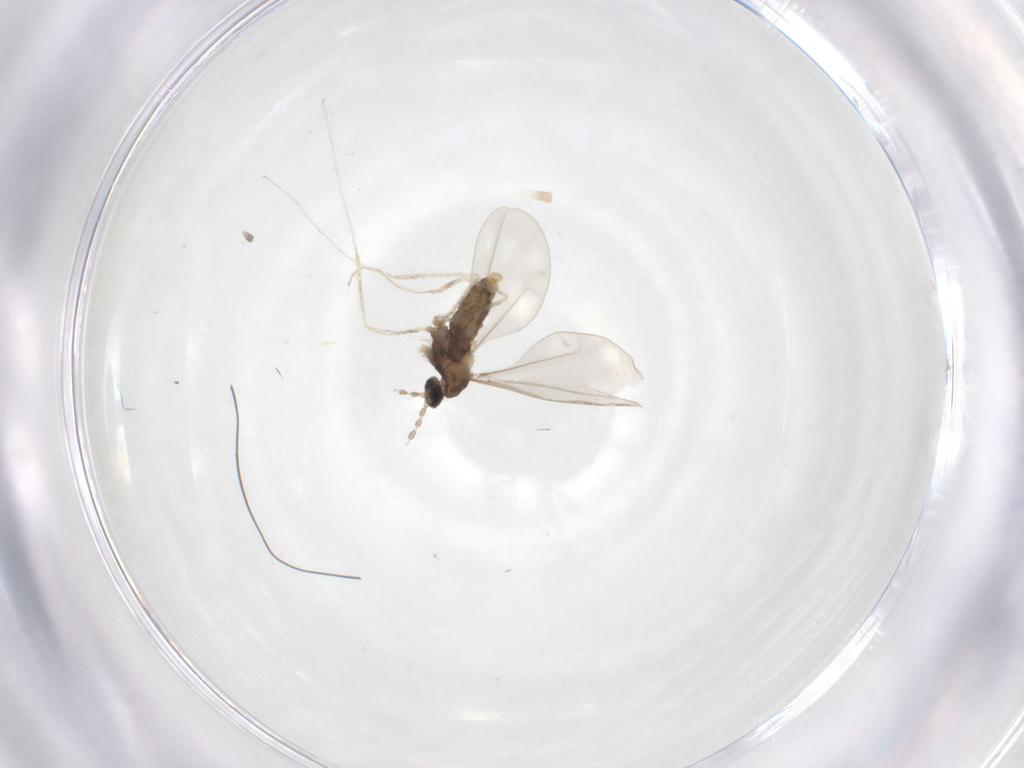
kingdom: Animalia
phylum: Arthropoda
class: Insecta
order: Diptera
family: Cecidomyiidae
